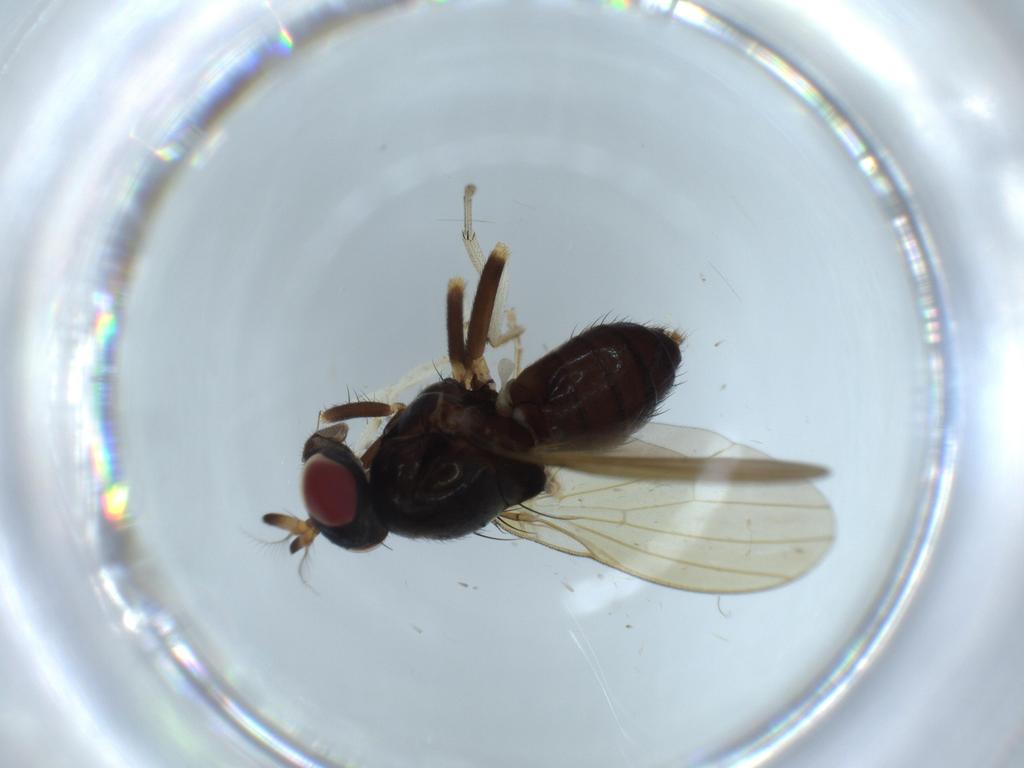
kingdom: Animalia
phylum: Arthropoda
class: Insecta
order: Diptera
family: Chironomidae
